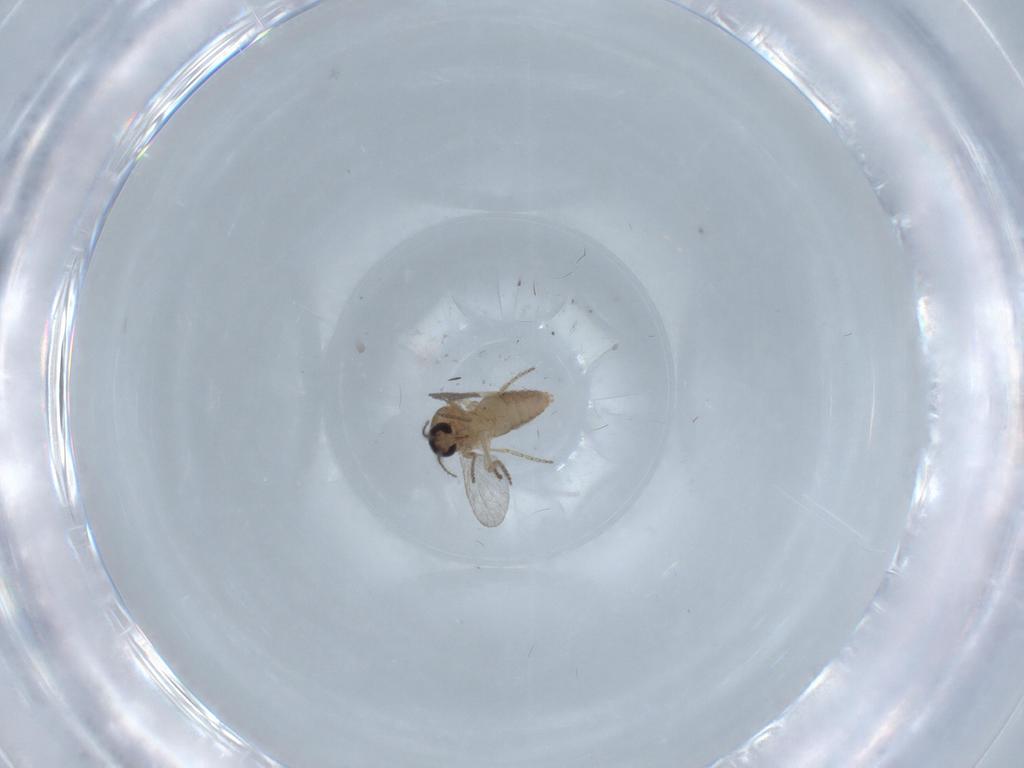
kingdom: Animalia
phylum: Arthropoda
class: Insecta
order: Diptera
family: Ceratopogonidae
